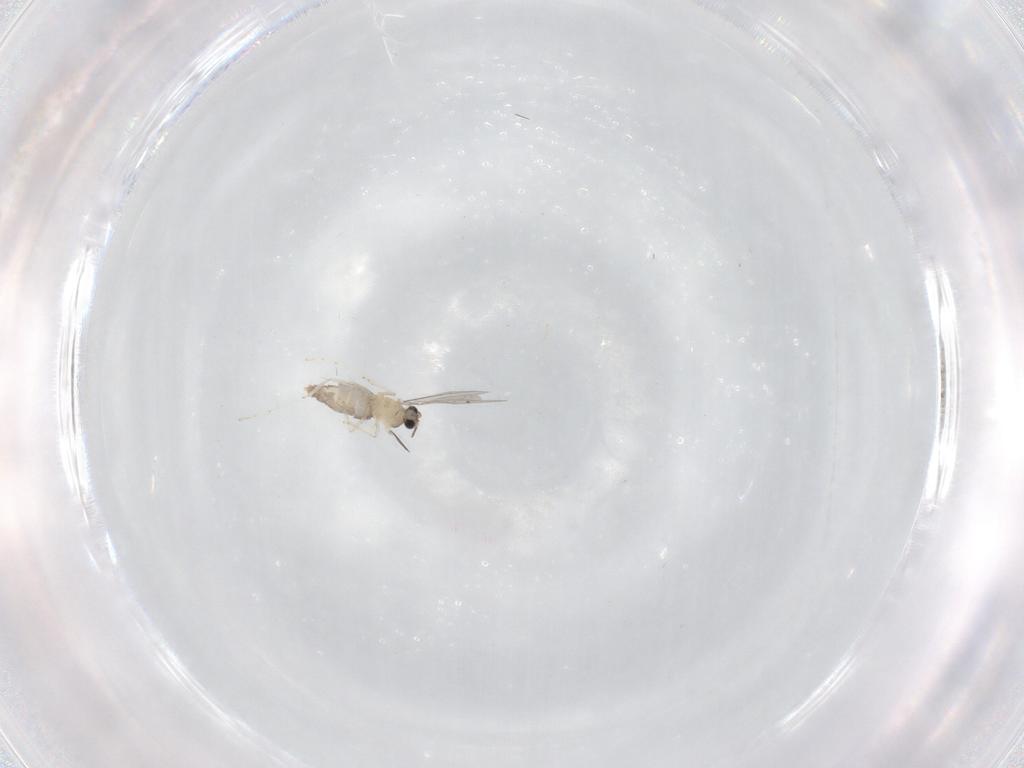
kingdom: Animalia
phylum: Arthropoda
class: Insecta
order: Diptera
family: Cecidomyiidae
